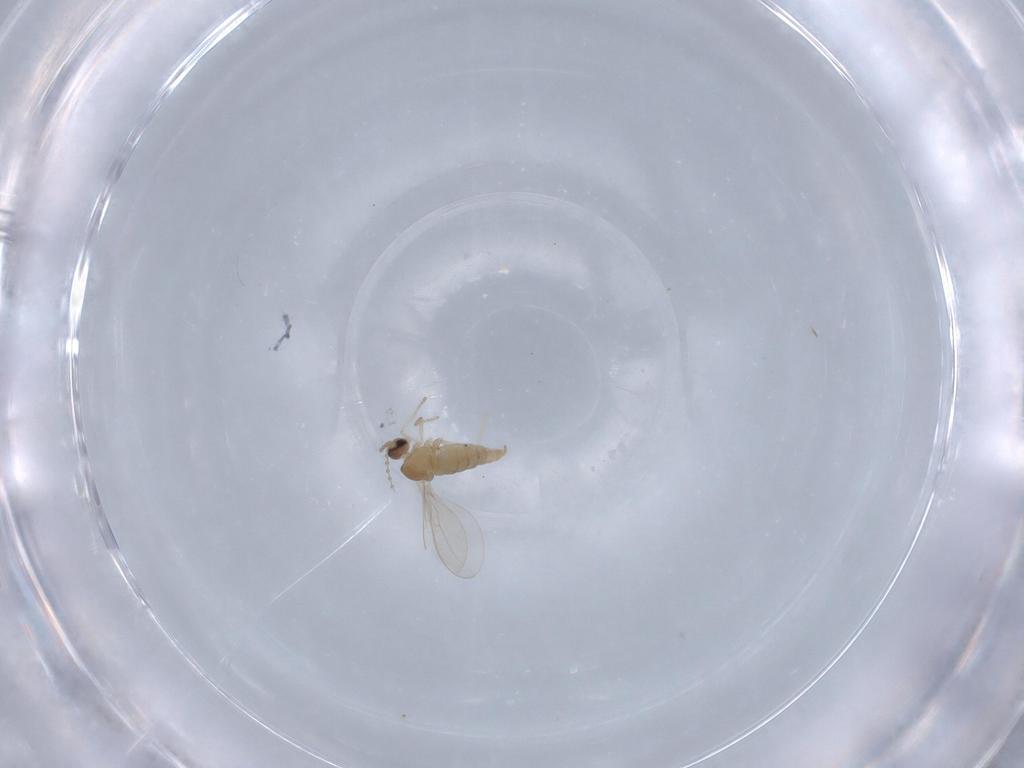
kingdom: Animalia
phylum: Arthropoda
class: Insecta
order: Diptera
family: Cecidomyiidae
